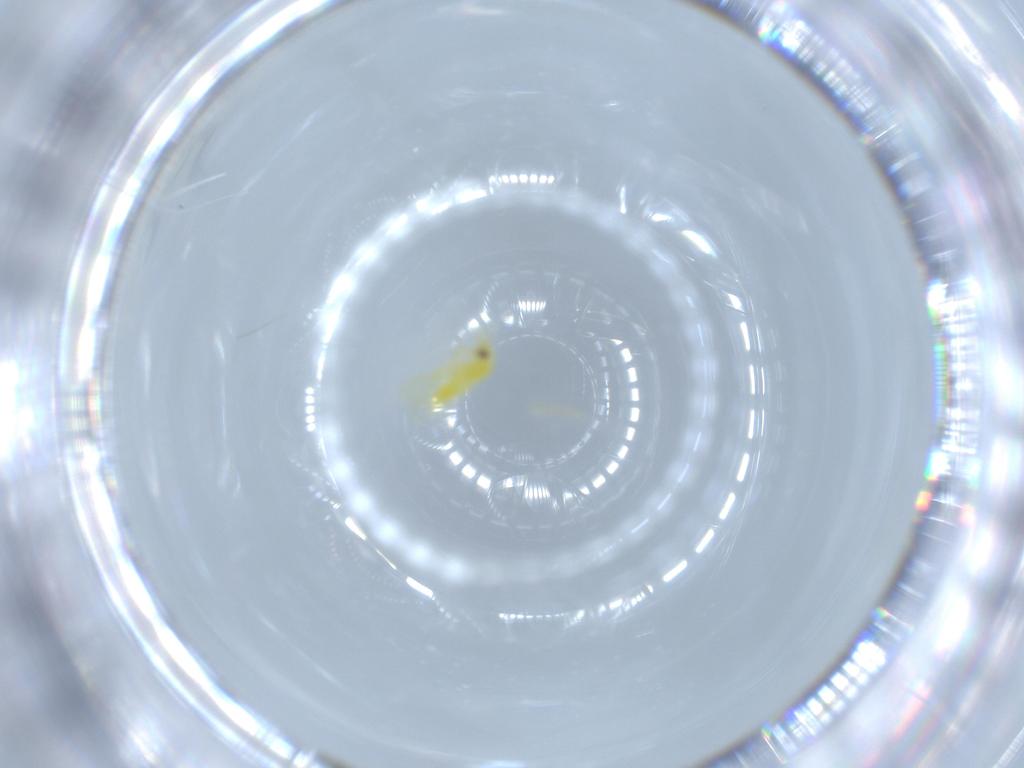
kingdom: Animalia
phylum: Arthropoda
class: Insecta
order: Hemiptera
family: Aleyrodidae
